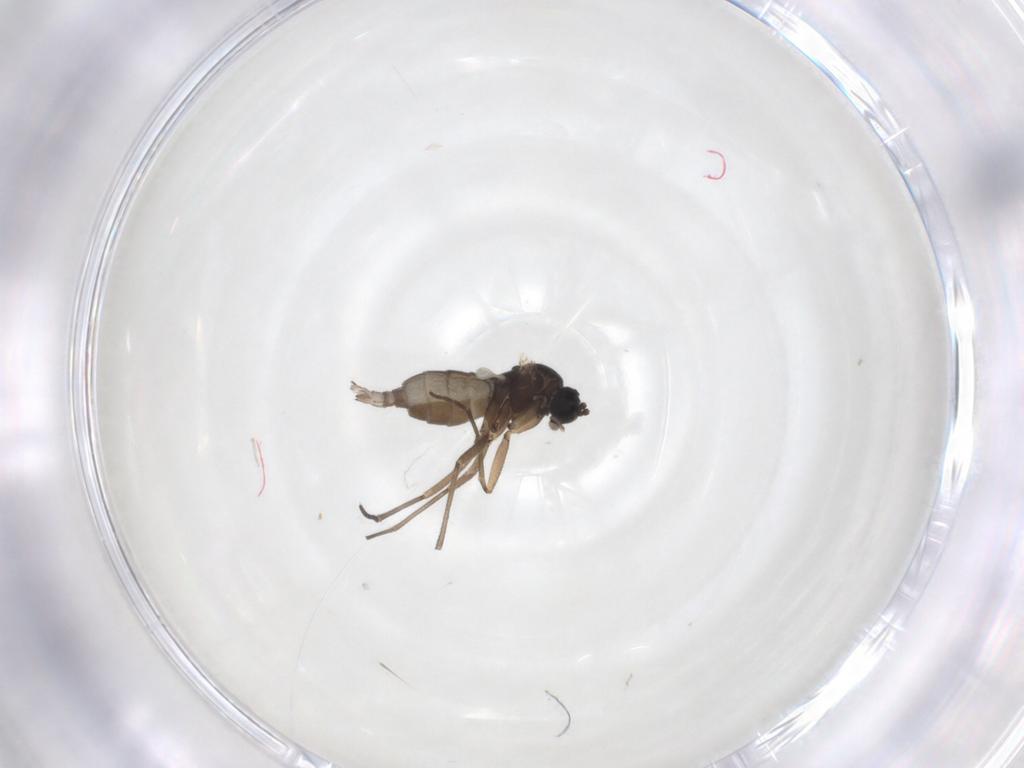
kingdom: Animalia
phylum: Arthropoda
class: Insecta
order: Diptera
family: Sciaridae
